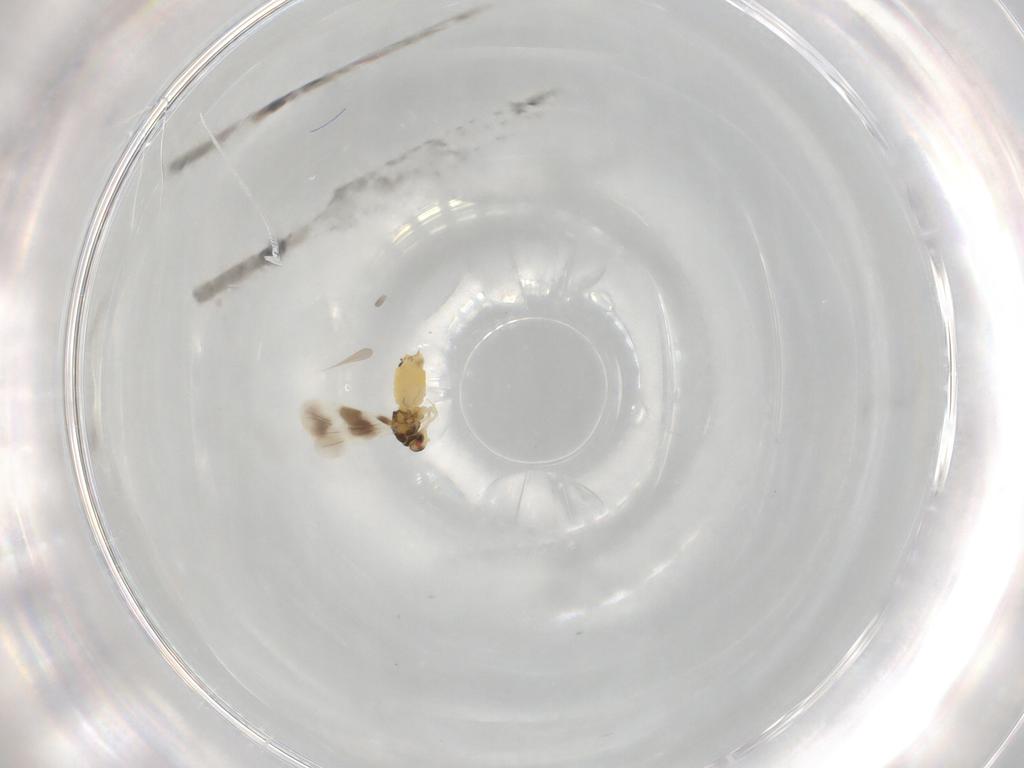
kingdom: Animalia
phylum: Arthropoda
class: Insecta
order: Hemiptera
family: Aleyrodidae
